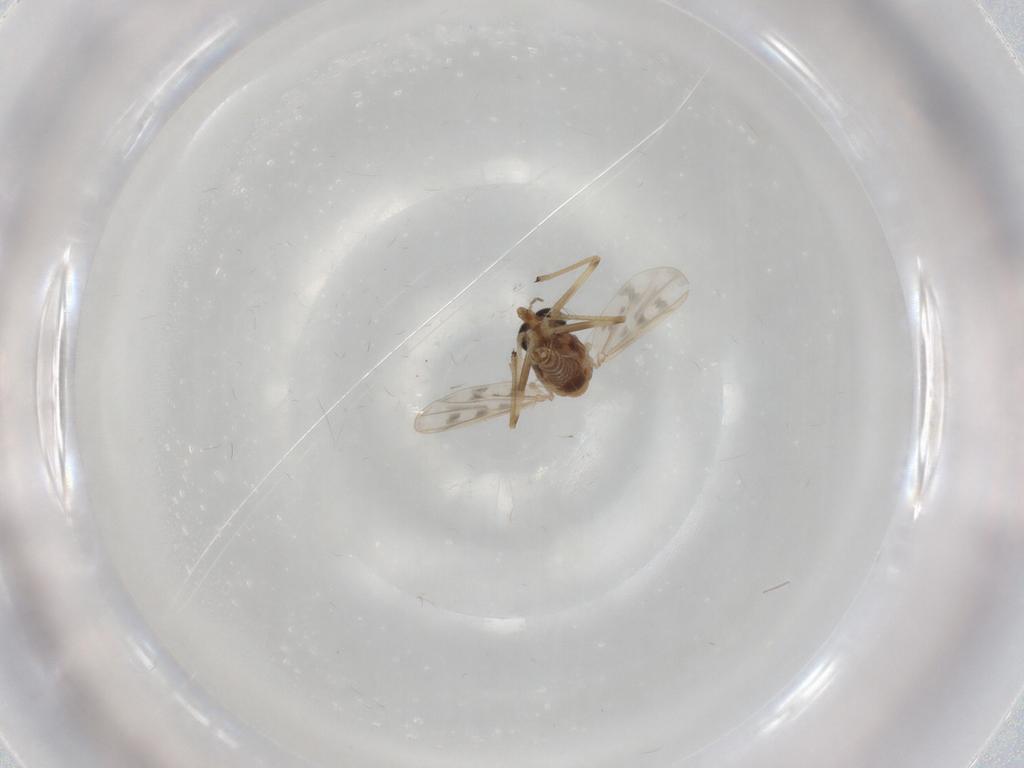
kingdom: Animalia
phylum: Arthropoda
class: Insecta
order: Diptera
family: Chironomidae
